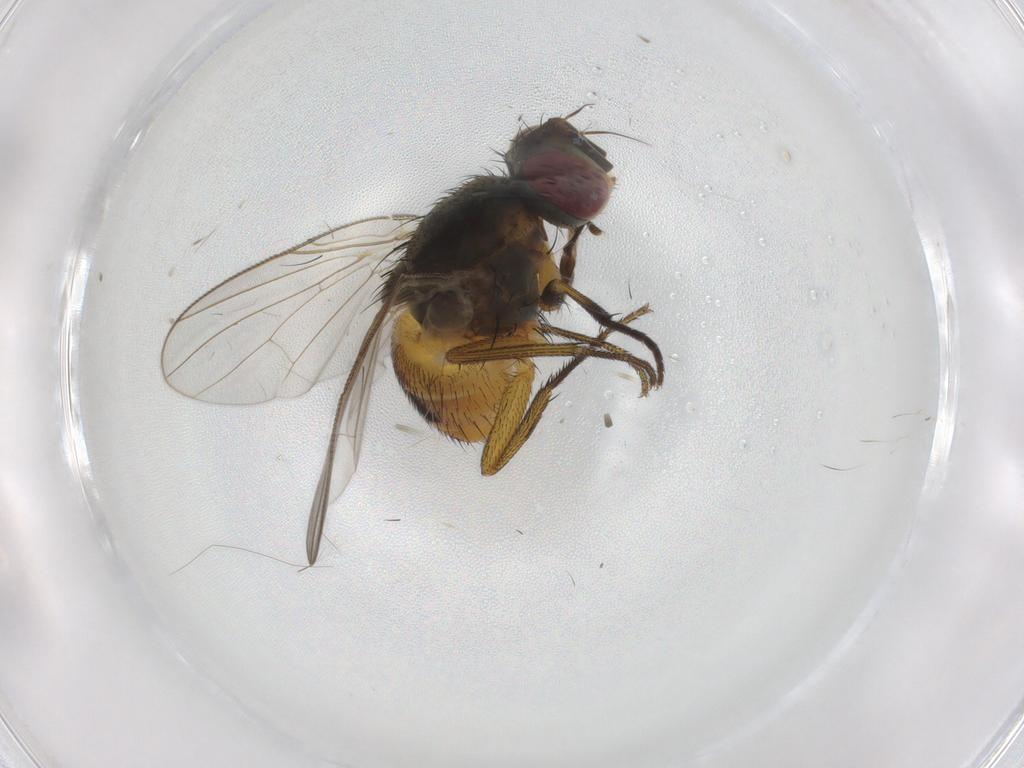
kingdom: Animalia
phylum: Arthropoda
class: Insecta
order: Diptera
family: Muscidae
